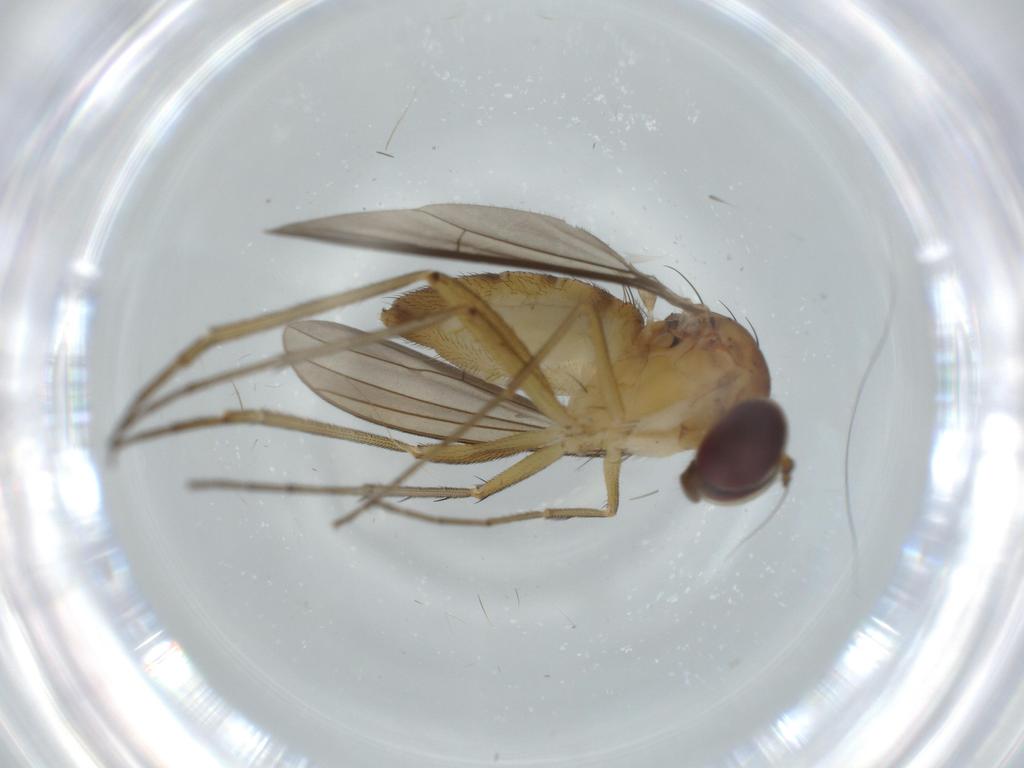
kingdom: Animalia
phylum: Arthropoda
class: Insecta
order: Diptera
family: Dolichopodidae
